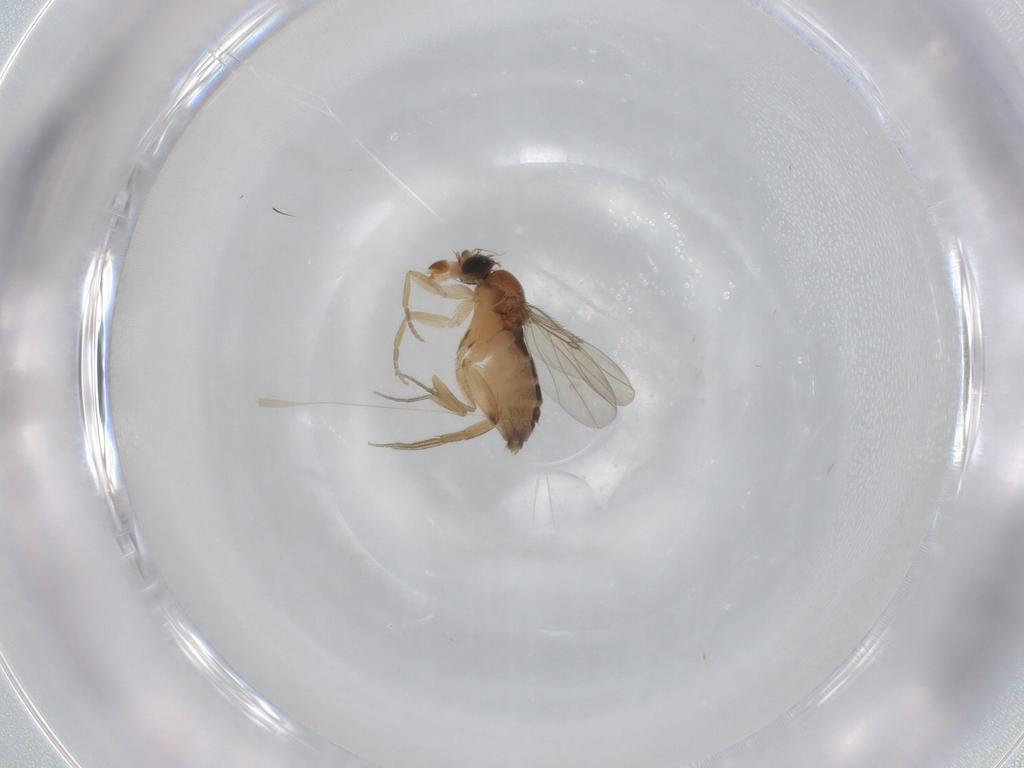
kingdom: Animalia
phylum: Arthropoda
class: Insecta
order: Diptera
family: Phoridae
